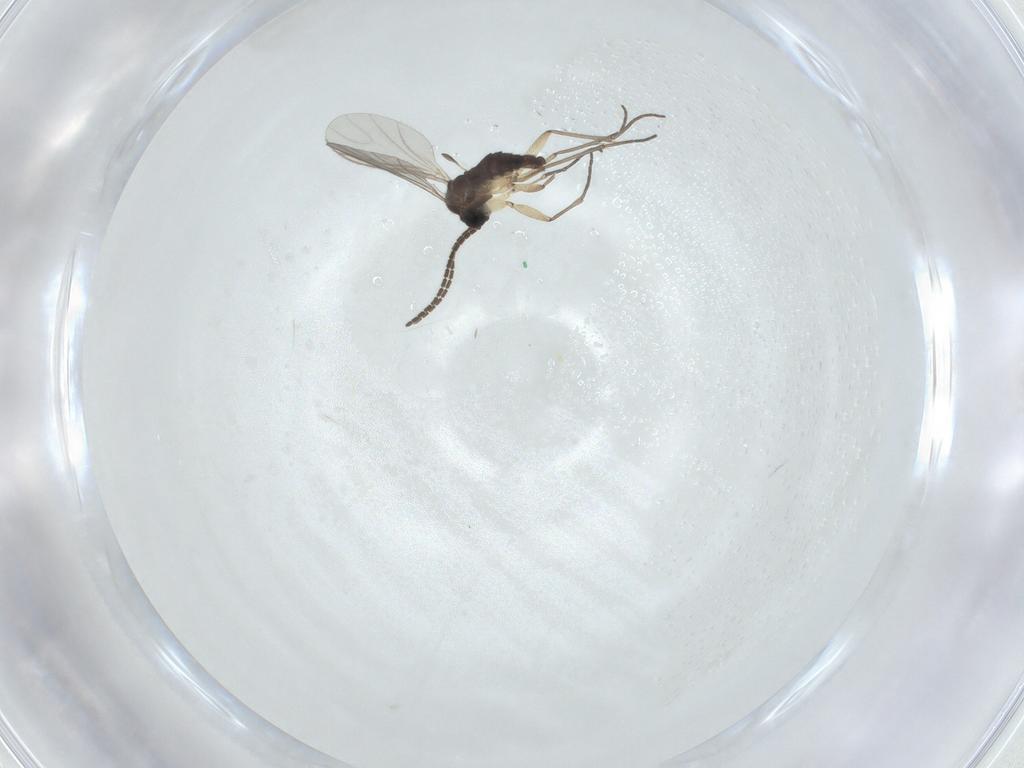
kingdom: Animalia
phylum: Arthropoda
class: Insecta
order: Diptera
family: Sciaridae
